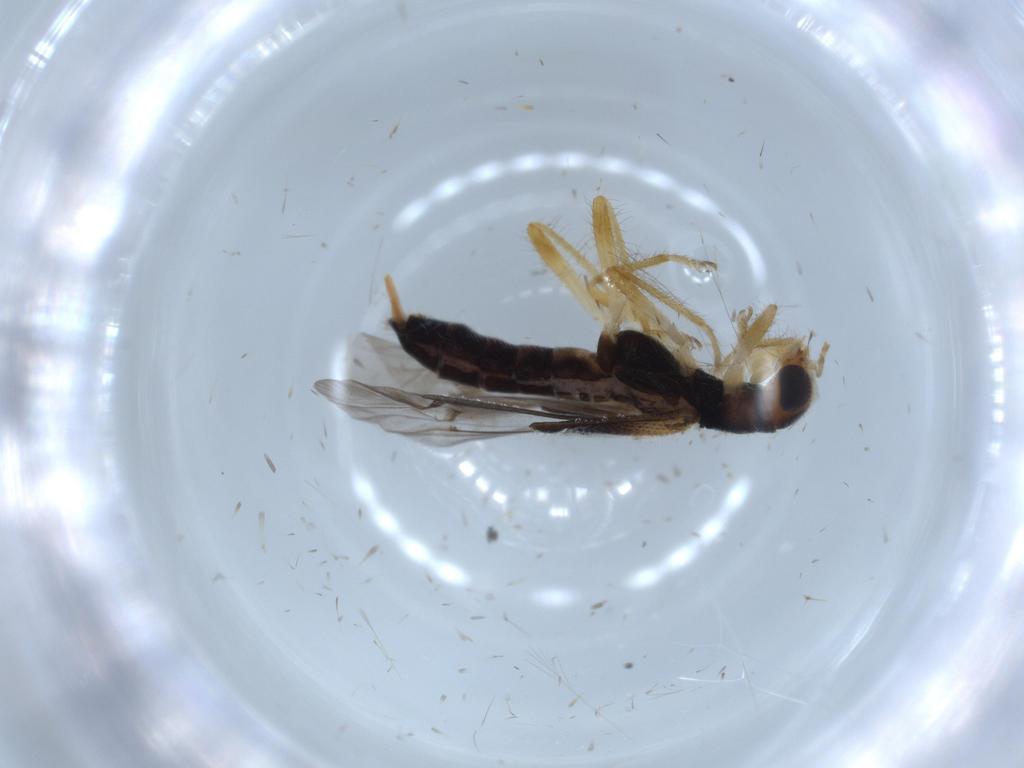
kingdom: Animalia
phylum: Arthropoda
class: Insecta
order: Coleoptera
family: Cleridae
